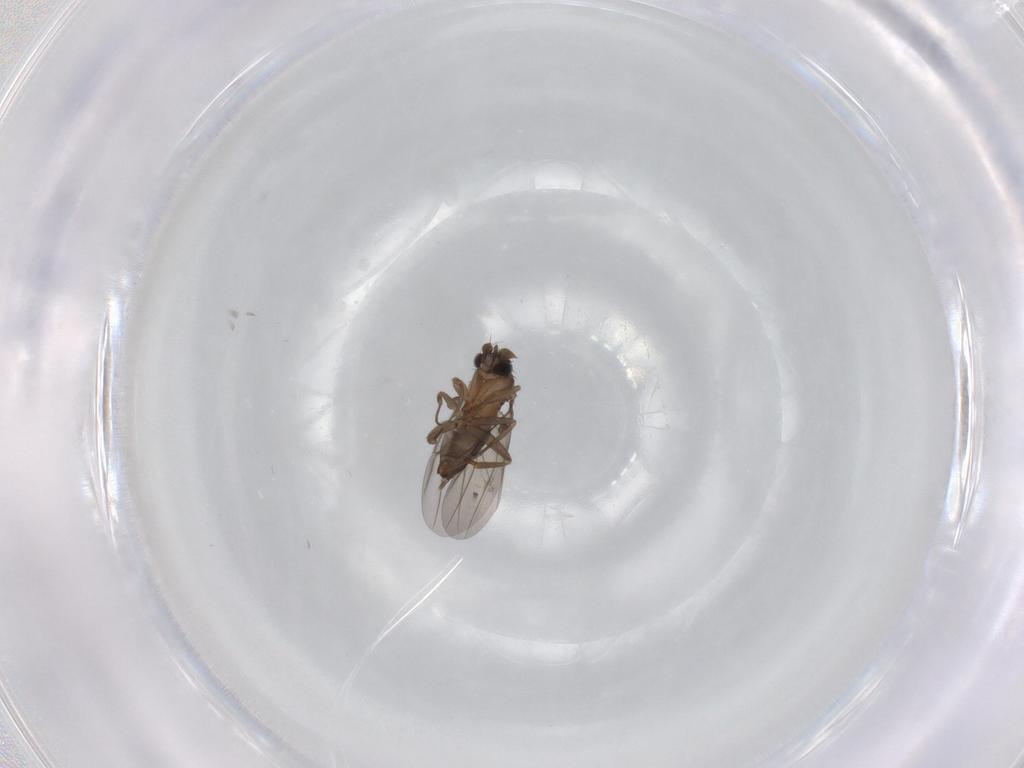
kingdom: Animalia
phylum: Arthropoda
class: Insecta
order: Diptera
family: Phoridae
